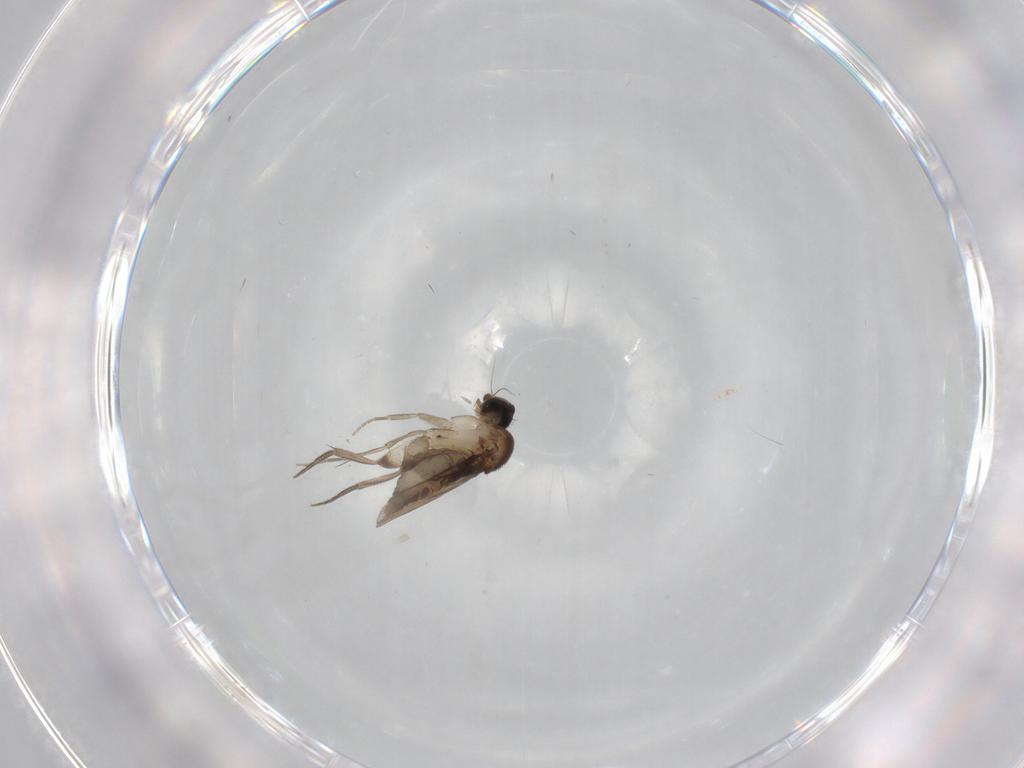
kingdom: Animalia
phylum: Arthropoda
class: Insecta
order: Diptera
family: Phoridae
